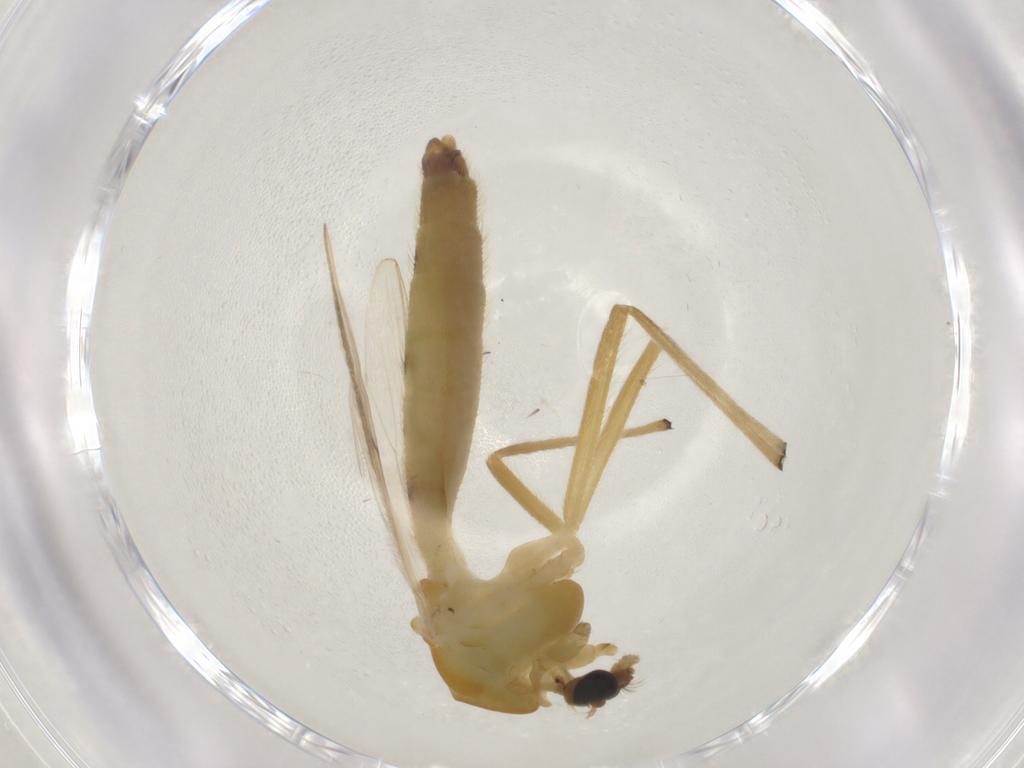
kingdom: Animalia
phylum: Arthropoda
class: Insecta
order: Diptera
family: Chironomidae
